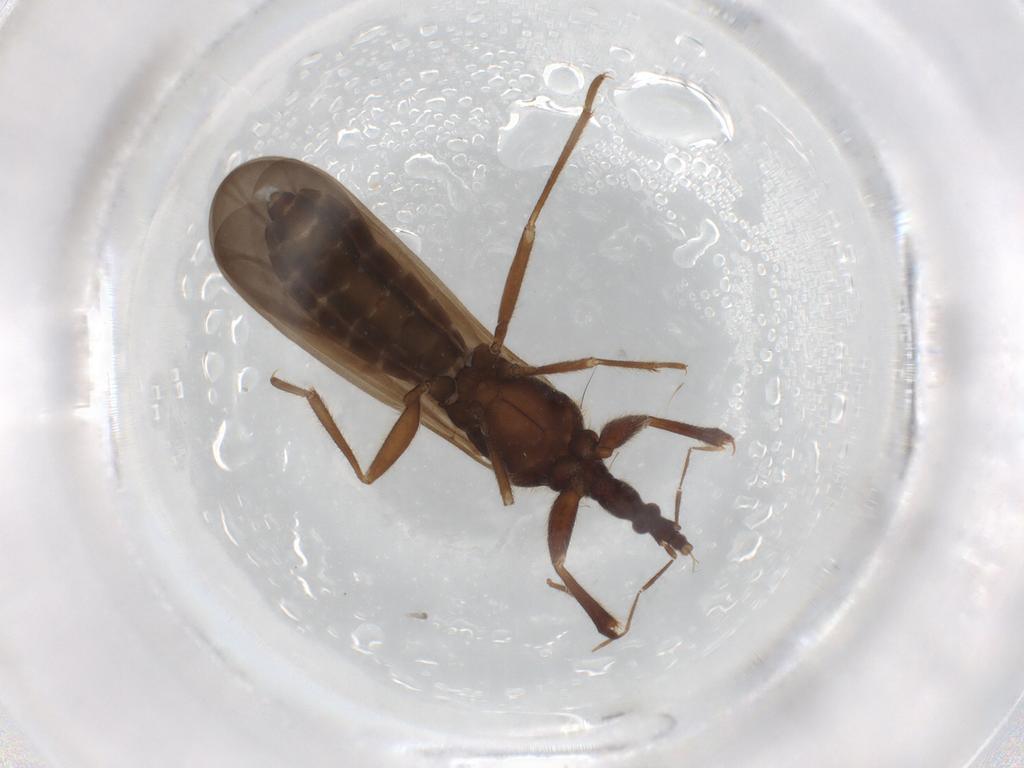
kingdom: Animalia
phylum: Arthropoda
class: Insecta
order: Hemiptera
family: Enicocephalidae
